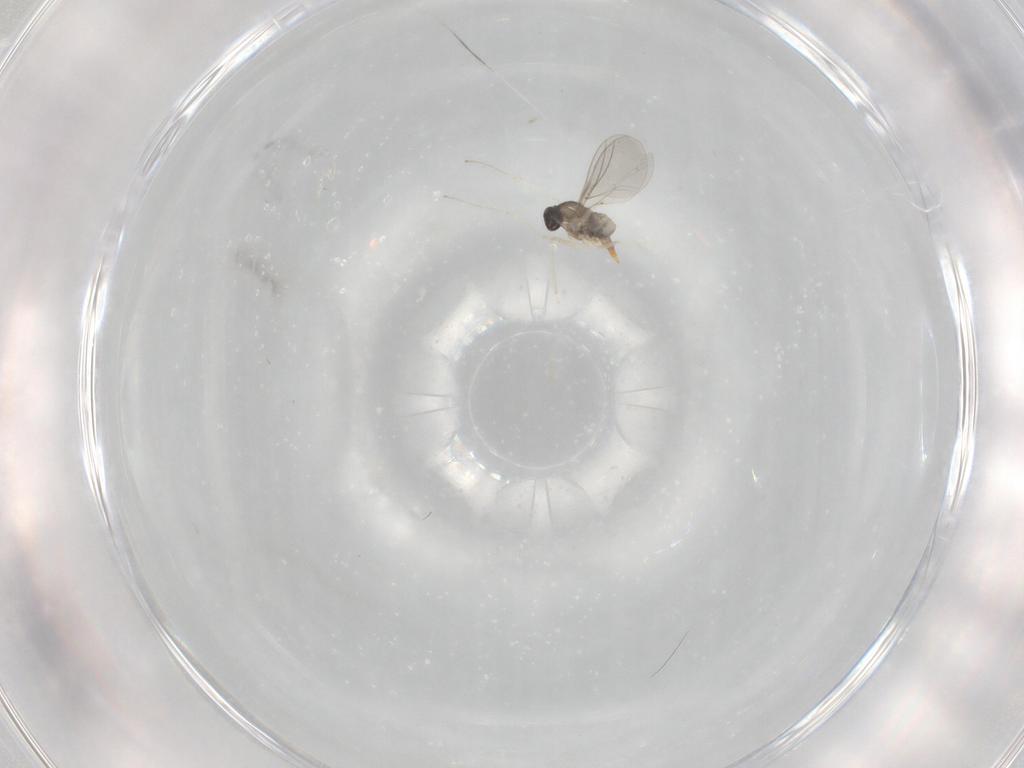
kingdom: Animalia
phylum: Arthropoda
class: Insecta
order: Diptera
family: Cecidomyiidae
